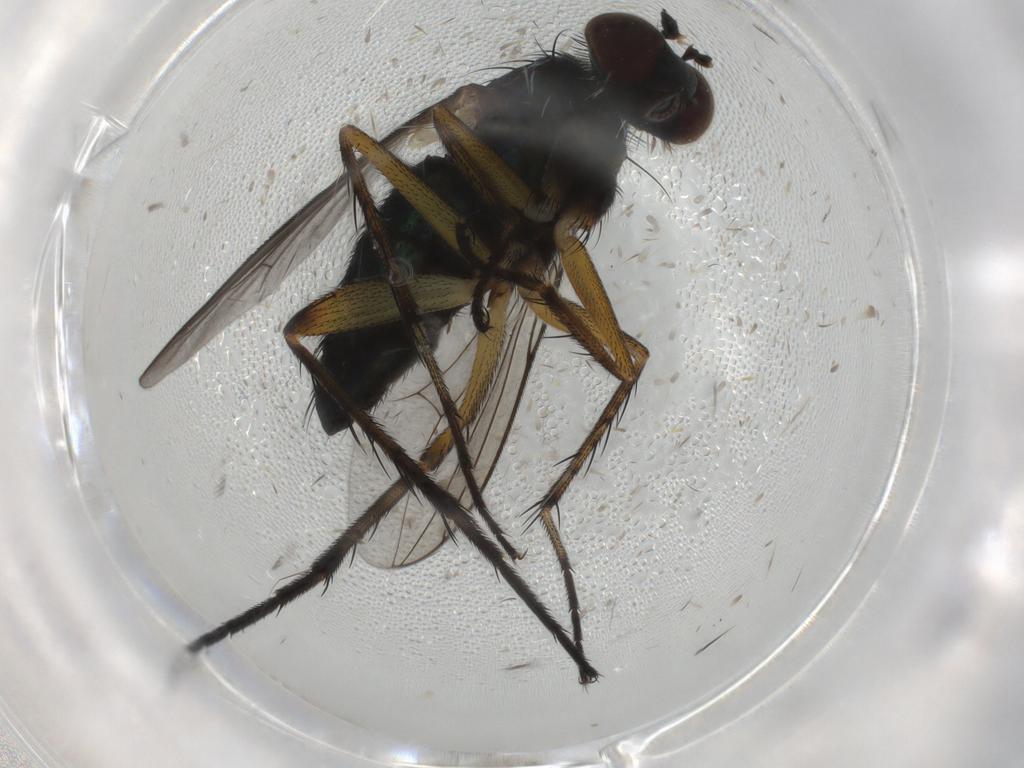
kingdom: Animalia
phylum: Arthropoda
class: Insecta
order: Diptera
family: Dolichopodidae
